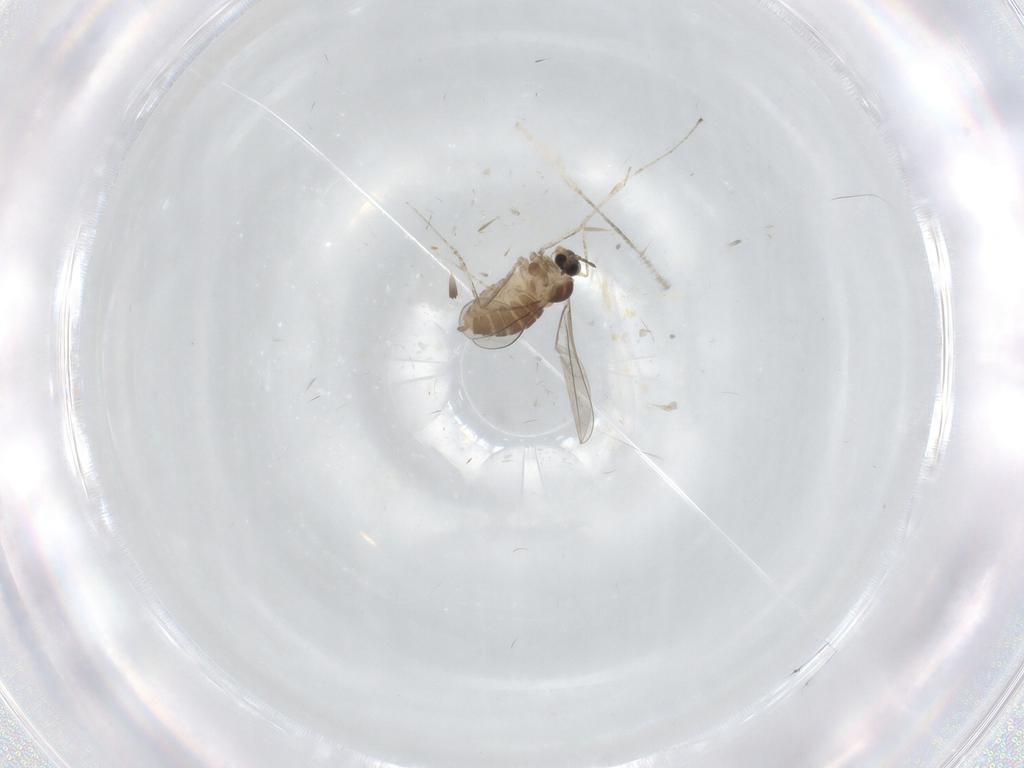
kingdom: Animalia
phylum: Arthropoda
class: Insecta
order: Diptera
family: Cecidomyiidae
